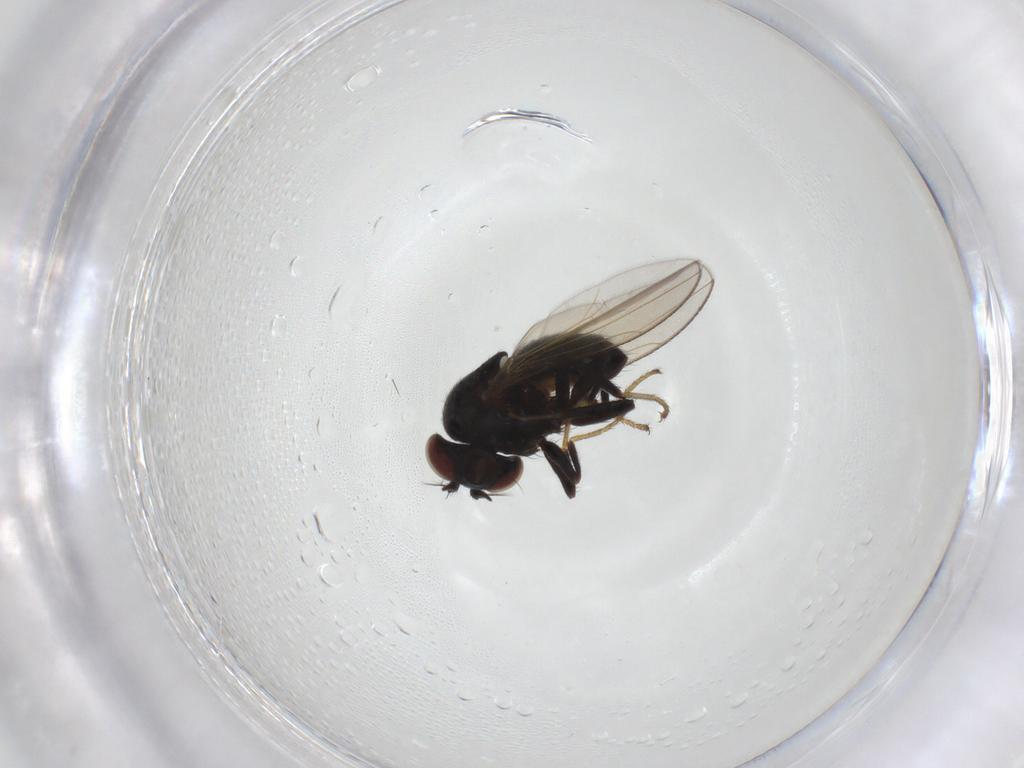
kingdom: Animalia
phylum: Arthropoda
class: Insecta
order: Diptera
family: Ephydridae
